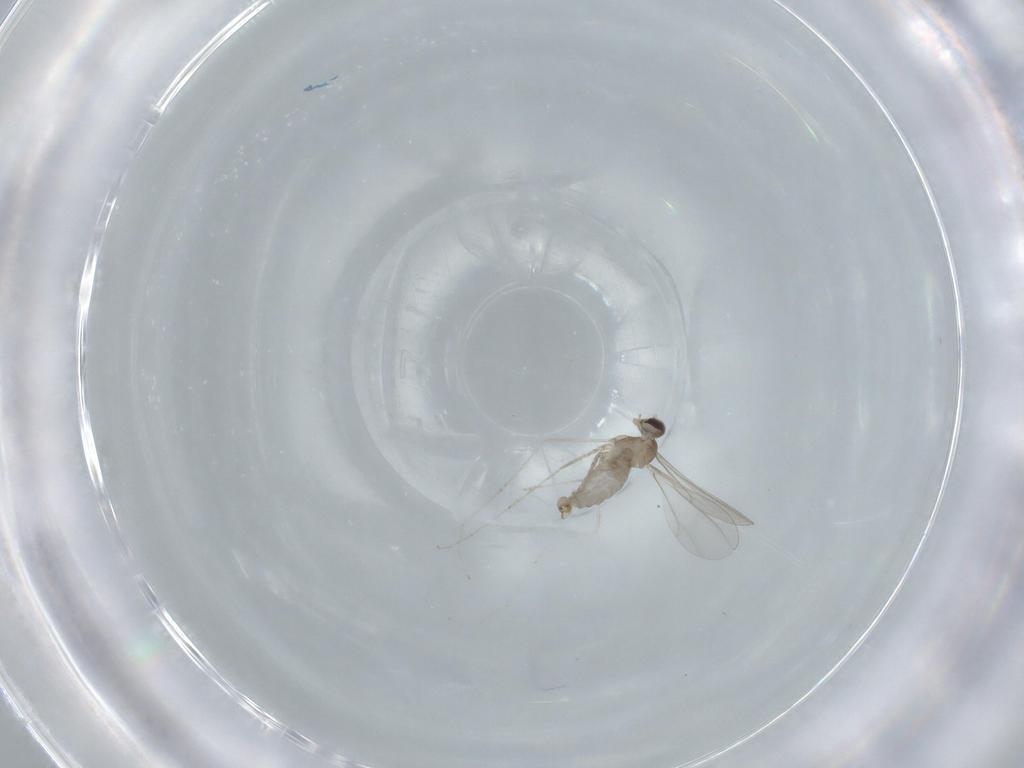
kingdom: Animalia
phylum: Arthropoda
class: Insecta
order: Diptera
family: Cecidomyiidae
